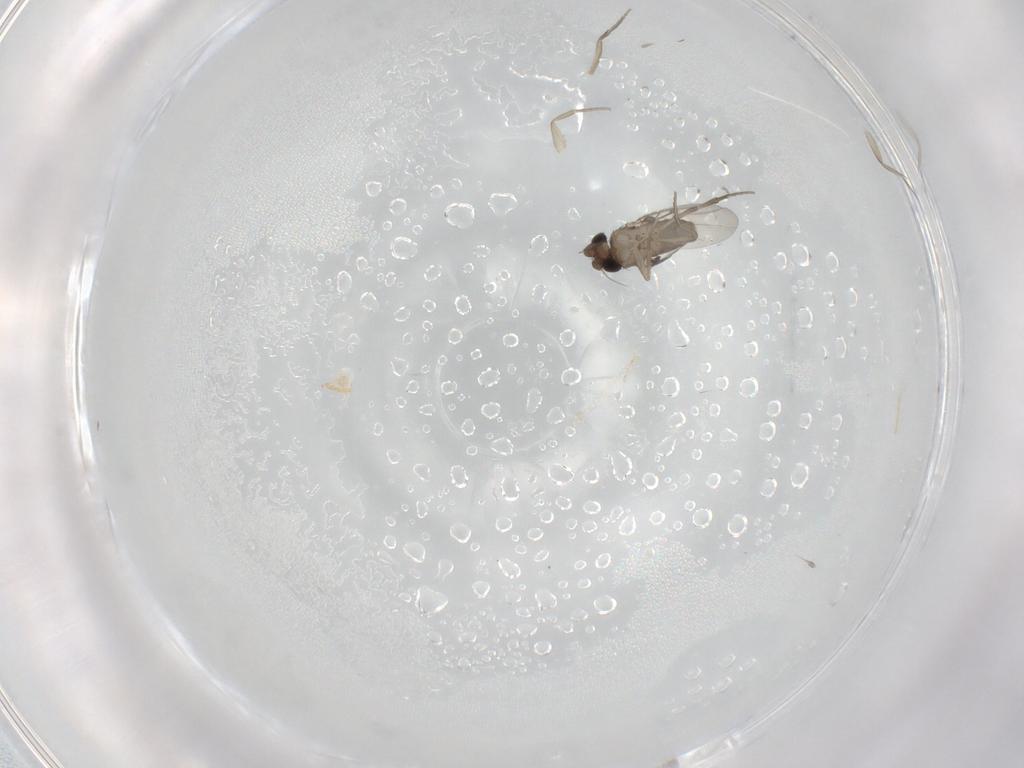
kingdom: Animalia
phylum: Arthropoda
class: Insecta
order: Diptera
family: Phoridae
